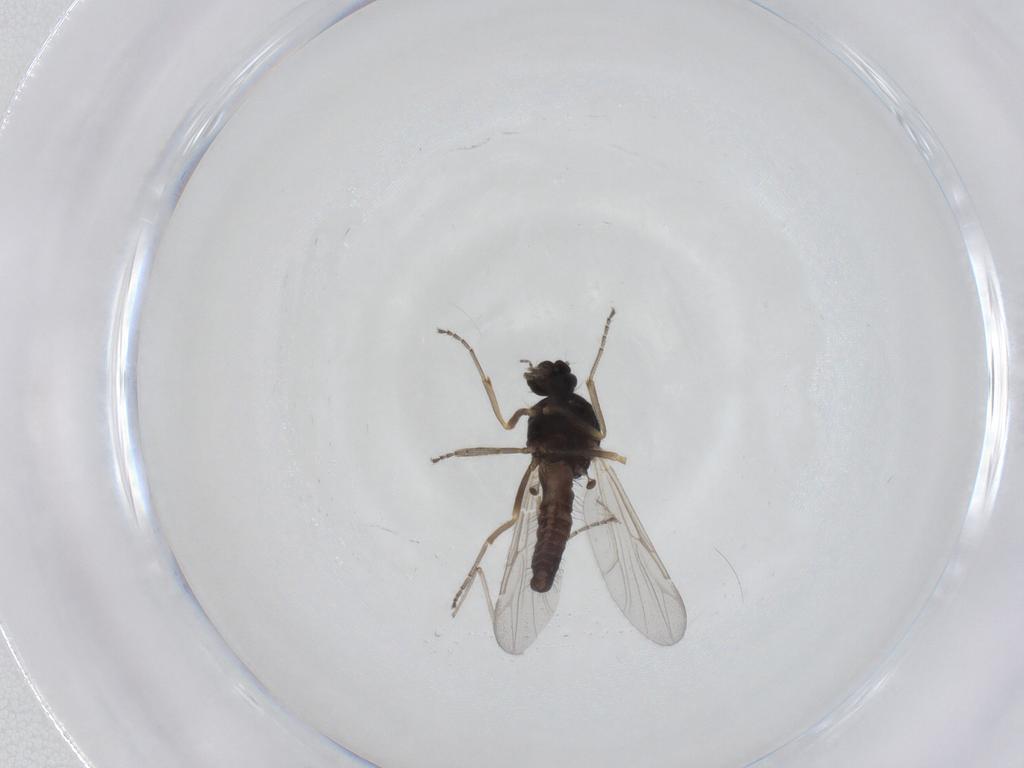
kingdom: Animalia
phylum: Arthropoda
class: Insecta
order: Diptera
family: Ceratopogonidae
